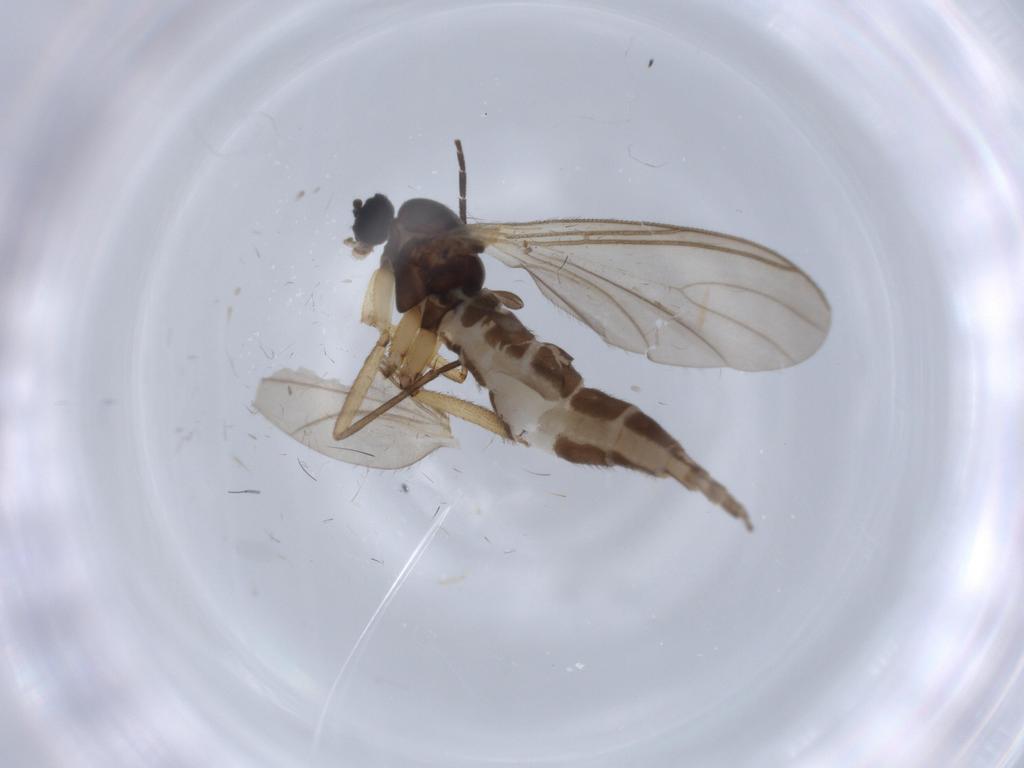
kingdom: Animalia
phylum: Arthropoda
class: Insecta
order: Diptera
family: Sciaridae
